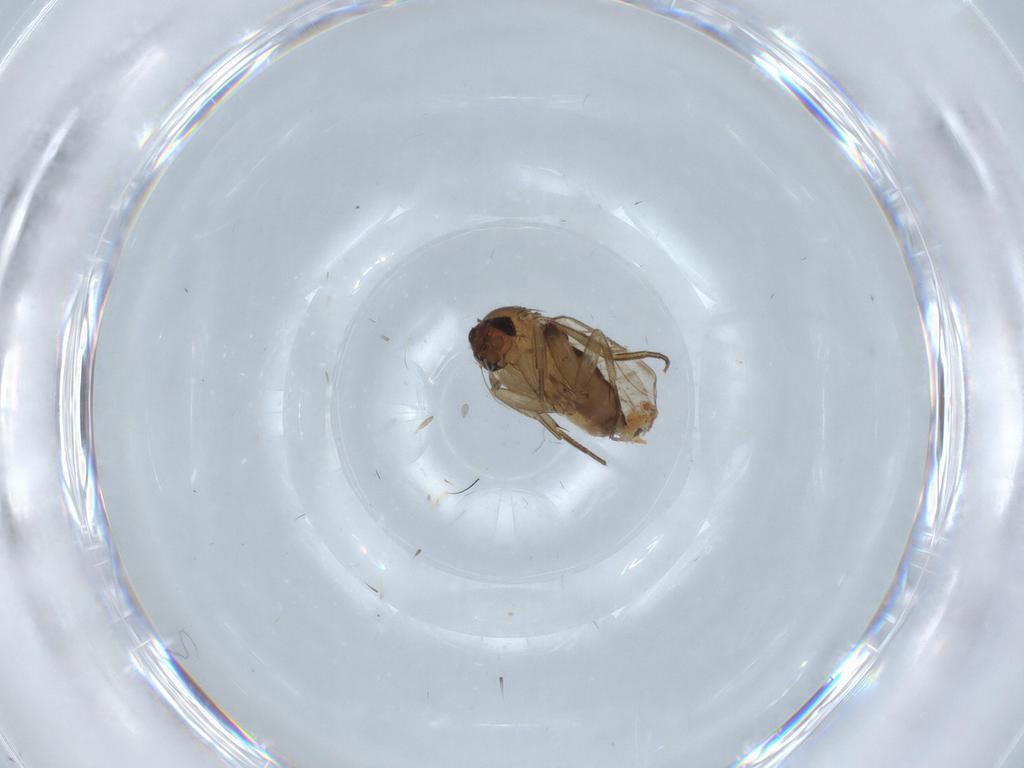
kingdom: Animalia
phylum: Arthropoda
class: Insecta
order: Diptera
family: Phoridae
